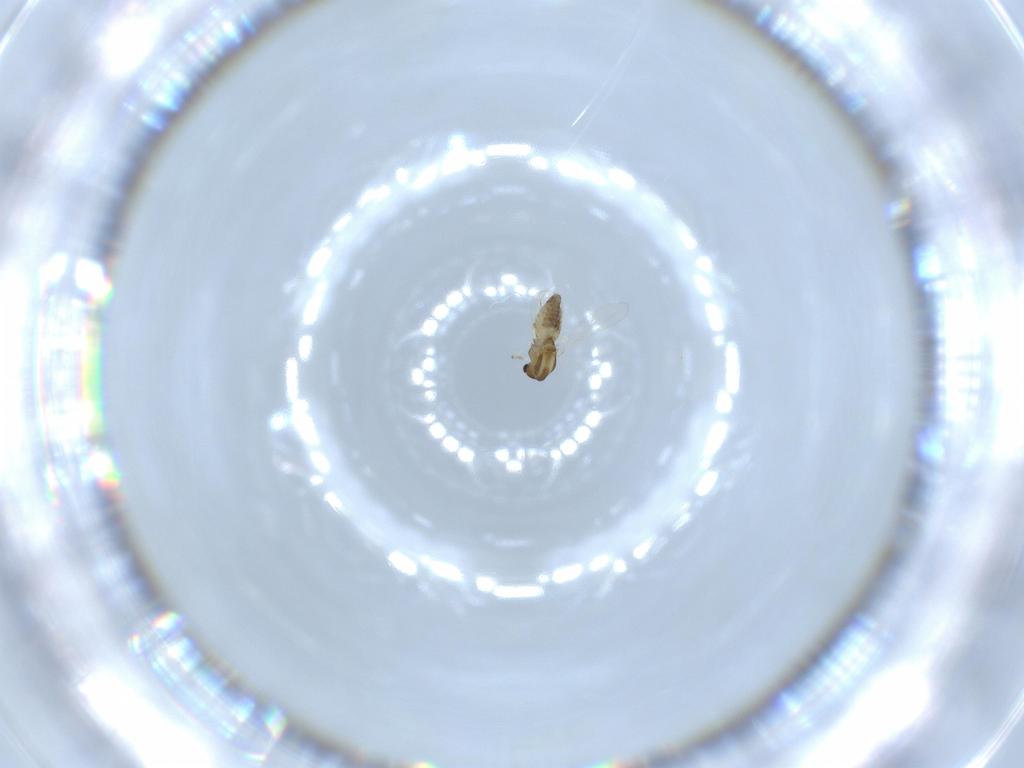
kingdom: Animalia
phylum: Arthropoda
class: Insecta
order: Diptera
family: Chironomidae
